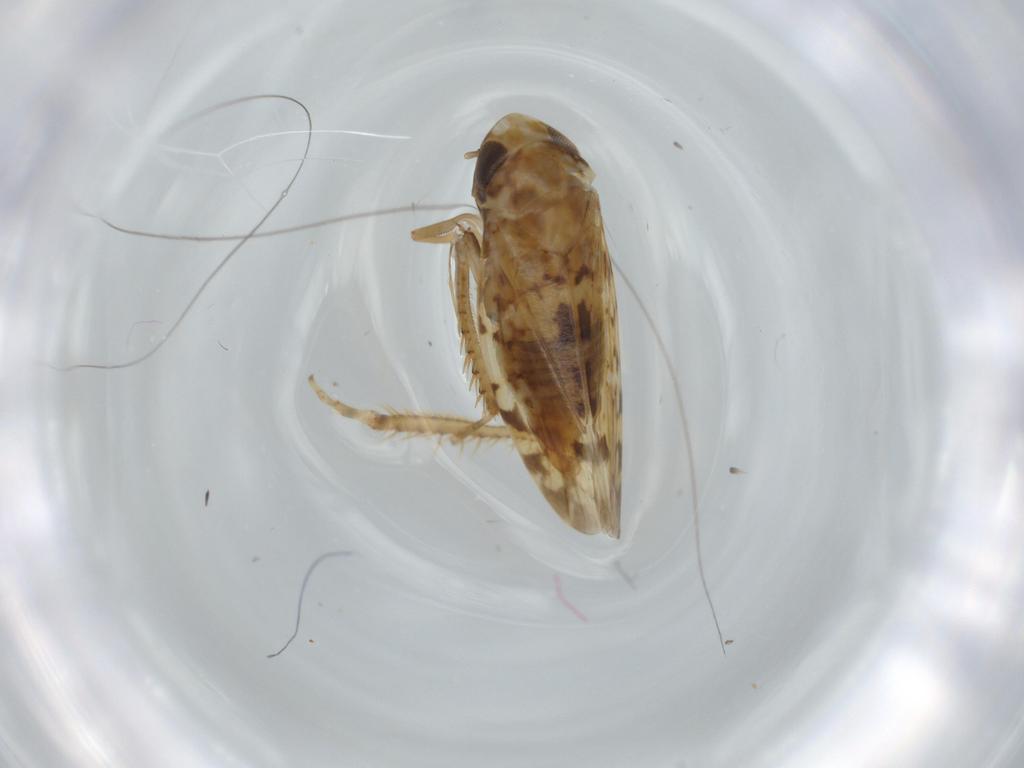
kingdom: Animalia
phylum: Arthropoda
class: Insecta
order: Hemiptera
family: Cicadellidae
